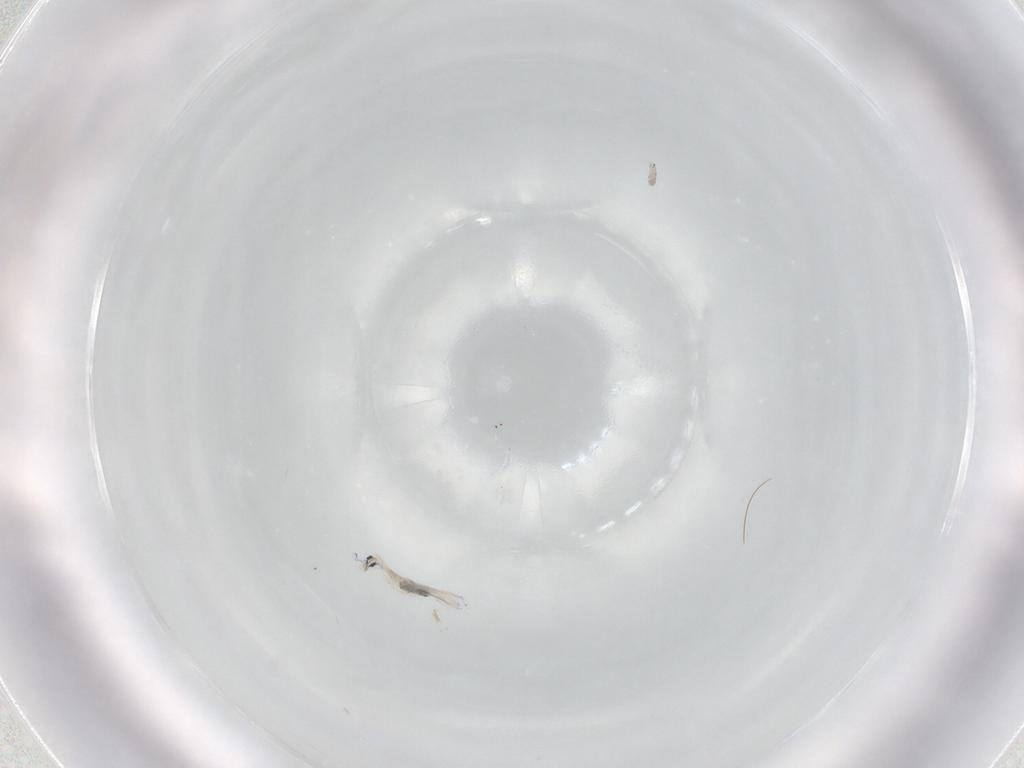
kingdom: Animalia
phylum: Arthropoda
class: Collembola
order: Entomobryomorpha
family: Entomobryidae
